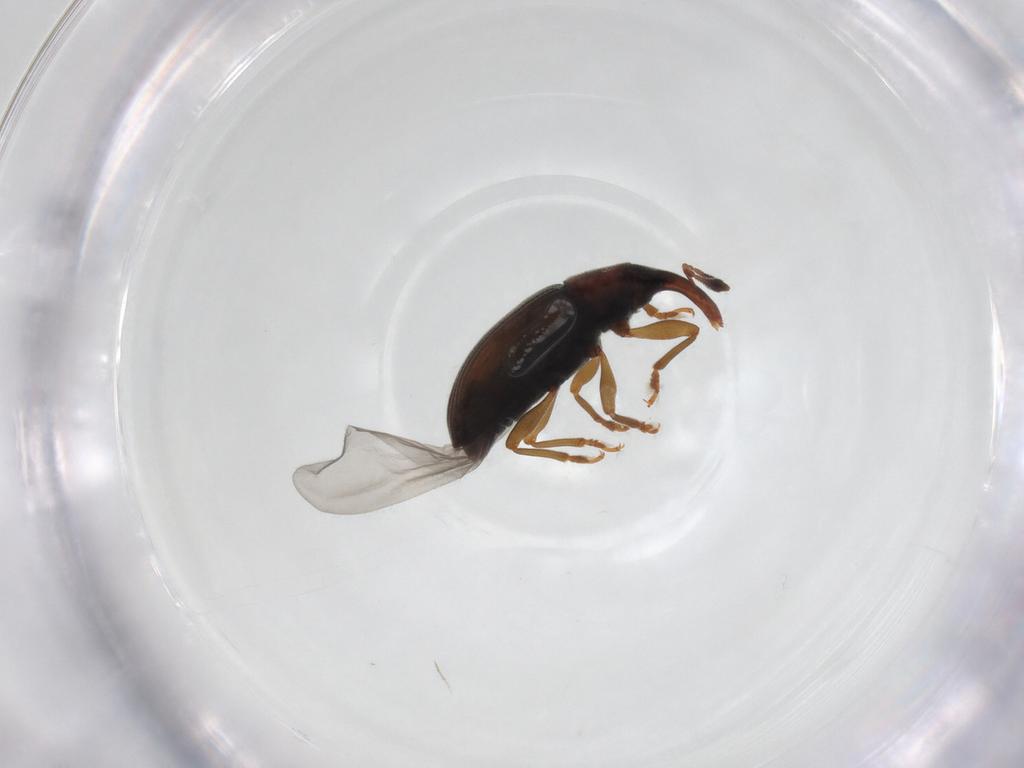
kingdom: Animalia
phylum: Arthropoda
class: Insecta
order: Coleoptera
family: Curculionidae
